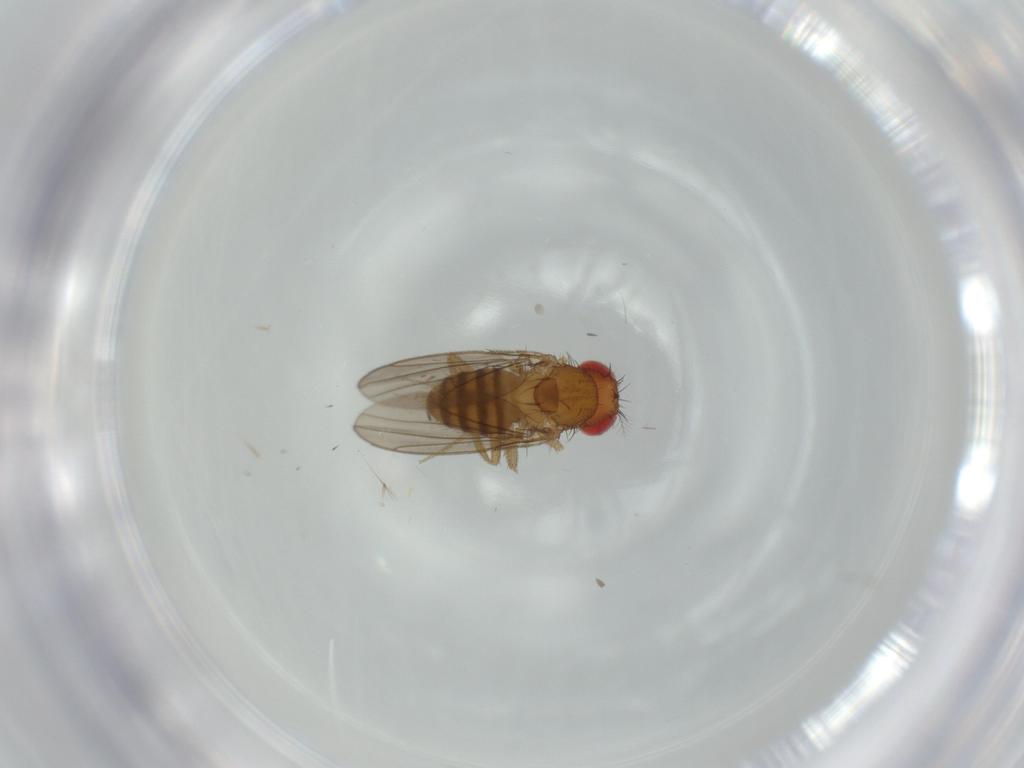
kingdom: Animalia
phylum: Arthropoda
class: Insecta
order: Diptera
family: Drosophilidae
